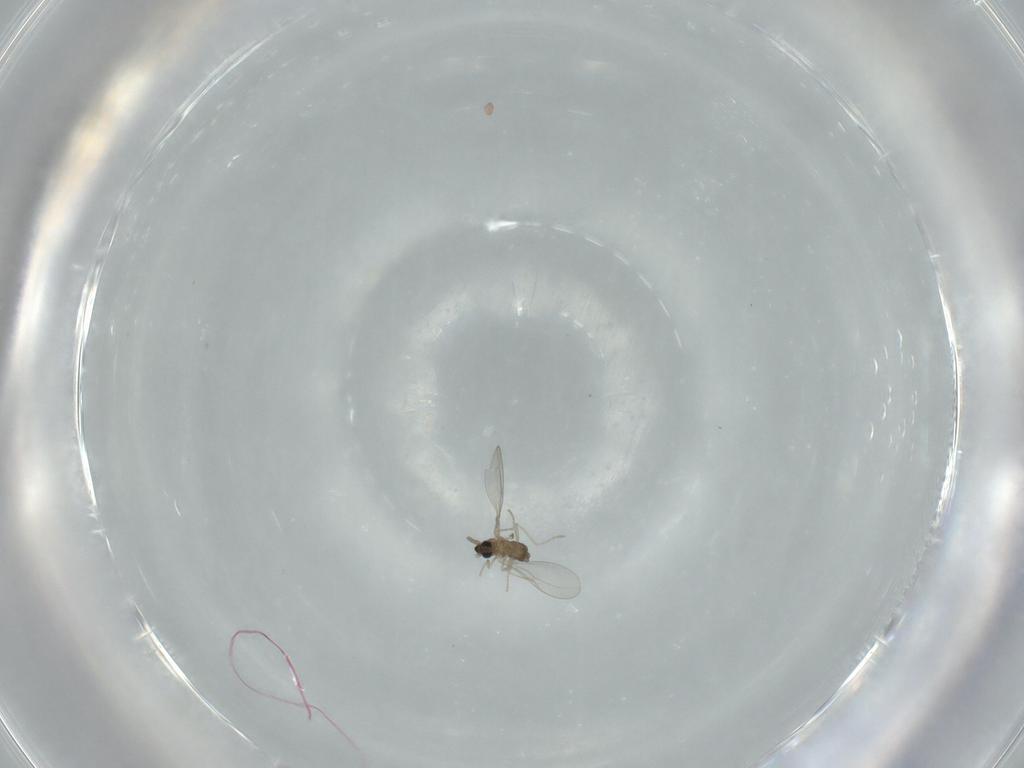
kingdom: Animalia
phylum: Arthropoda
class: Insecta
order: Diptera
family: Cecidomyiidae
